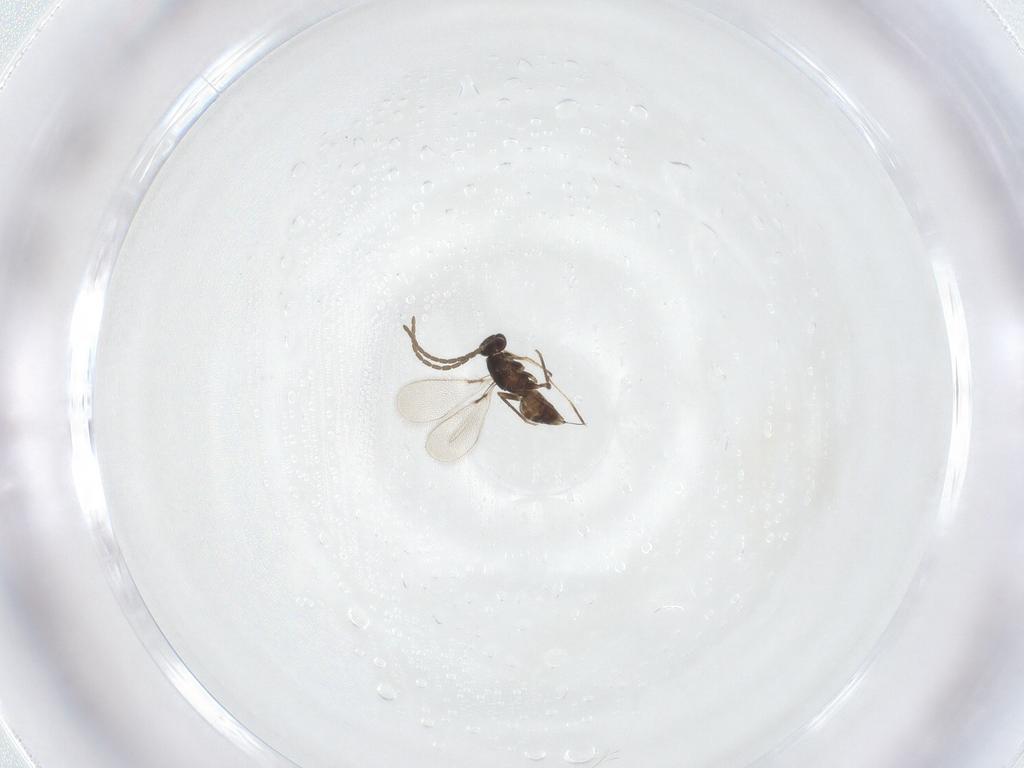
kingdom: Animalia
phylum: Arthropoda
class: Insecta
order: Hymenoptera
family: Mymaridae
